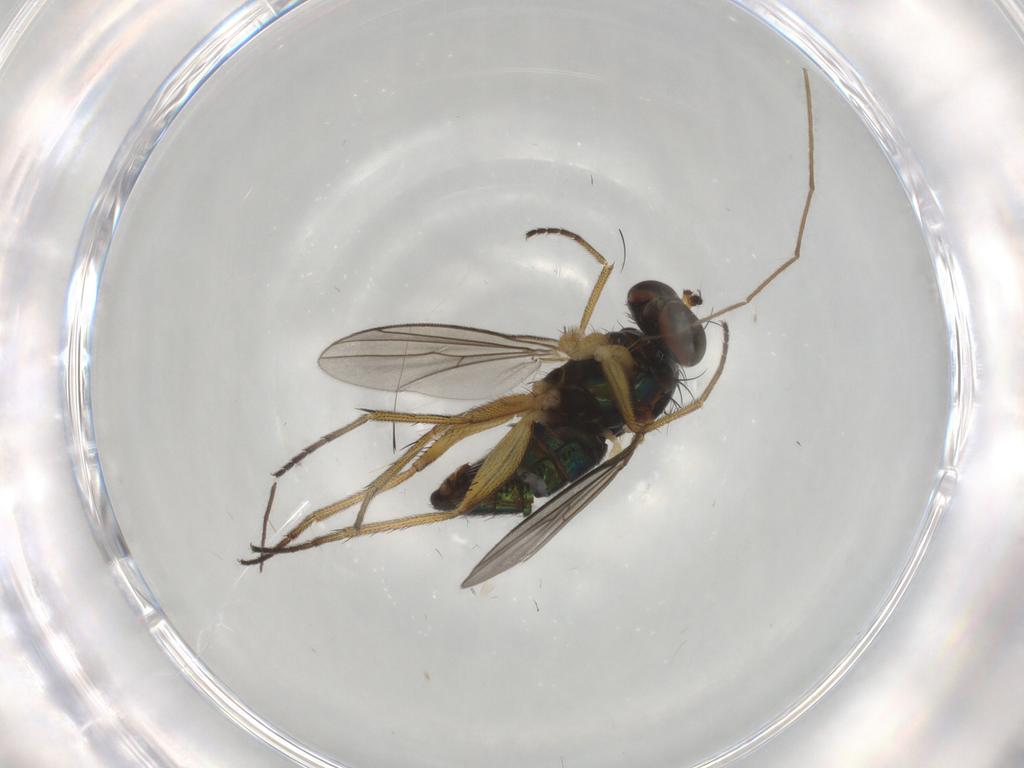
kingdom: Animalia
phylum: Arthropoda
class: Insecta
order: Diptera
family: Chironomidae
